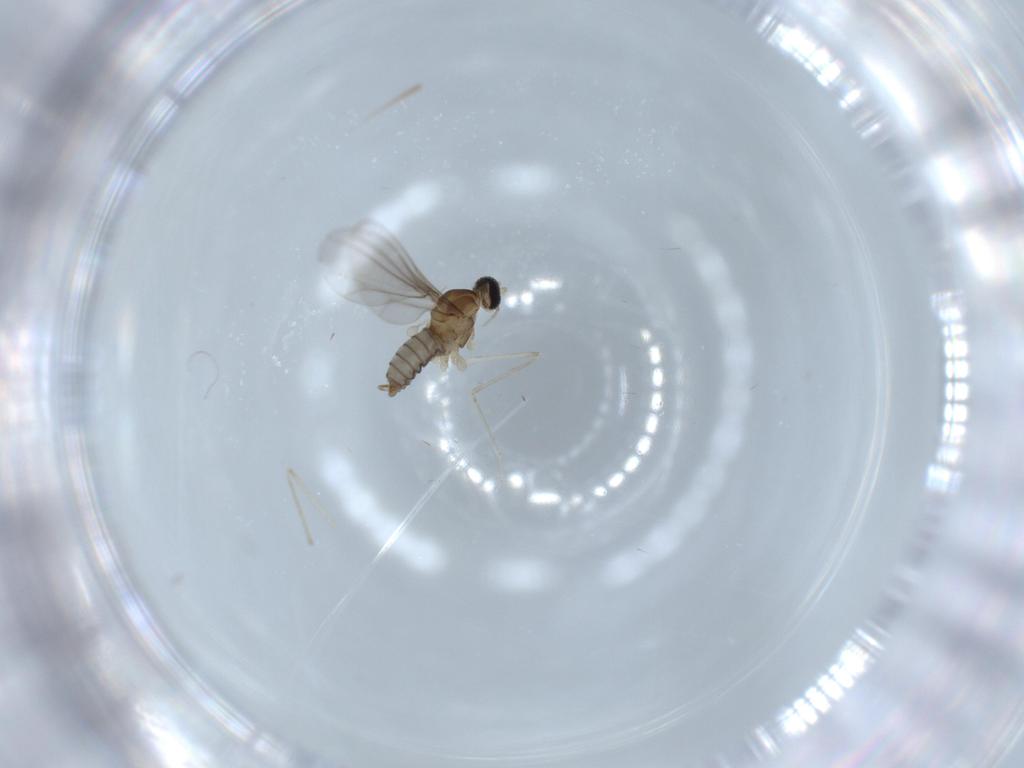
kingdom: Animalia
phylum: Arthropoda
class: Insecta
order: Diptera
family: Cecidomyiidae
